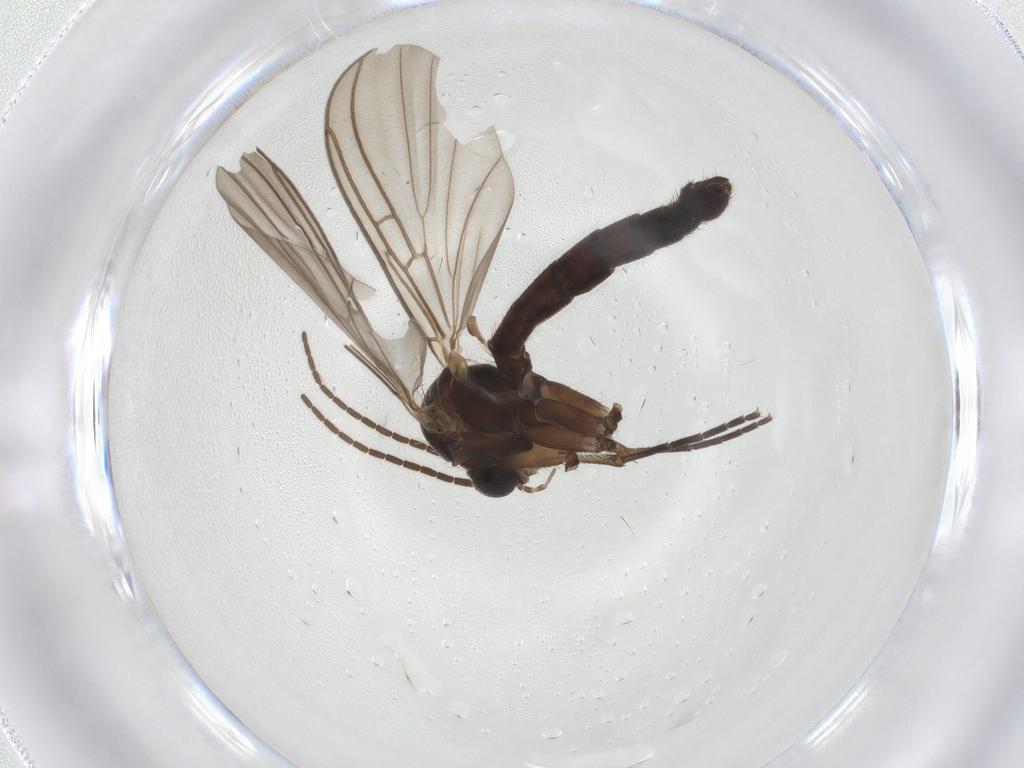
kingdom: Animalia
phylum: Arthropoda
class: Insecta
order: Diptera
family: Mycetophilidae
